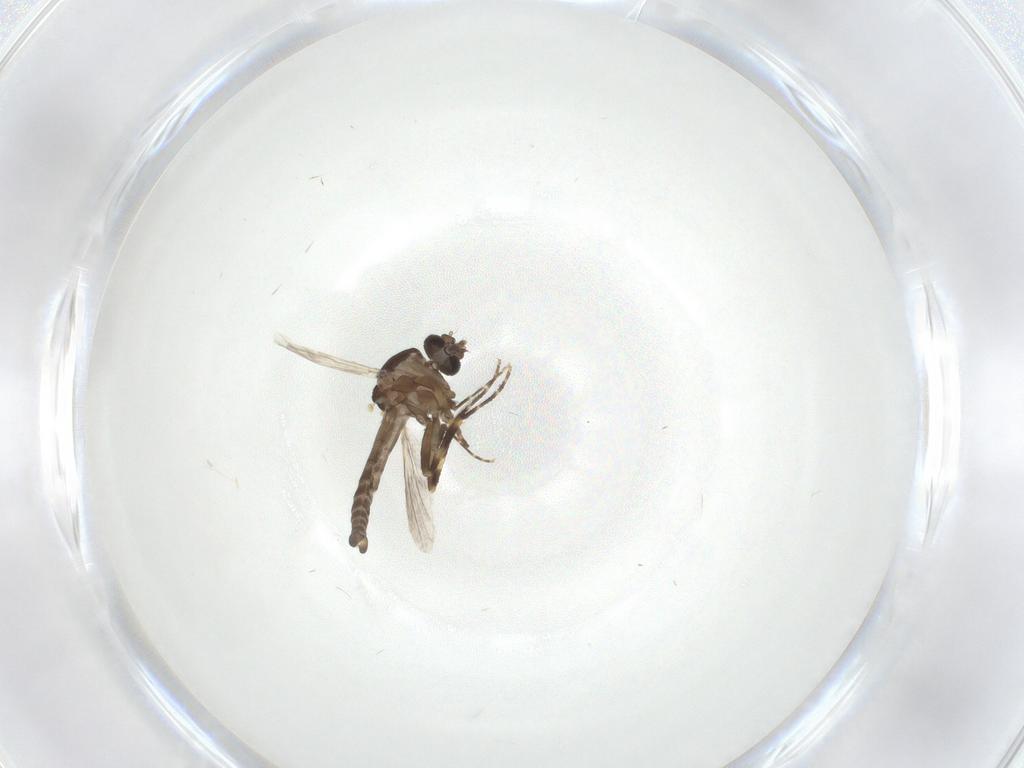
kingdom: Animalia
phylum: Arthropoda
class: Insecta
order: Diptera
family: Ceratopogonidae
